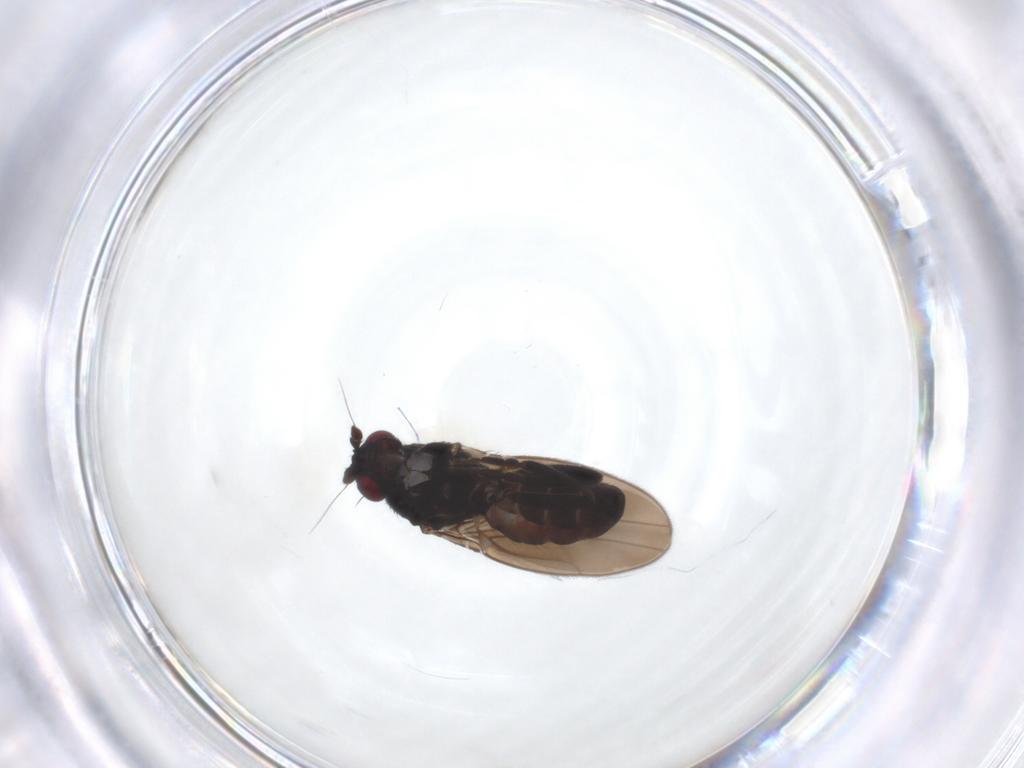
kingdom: Animalia
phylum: Arthropoda
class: Insecta
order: Diptera
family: Sphaeroceridae
